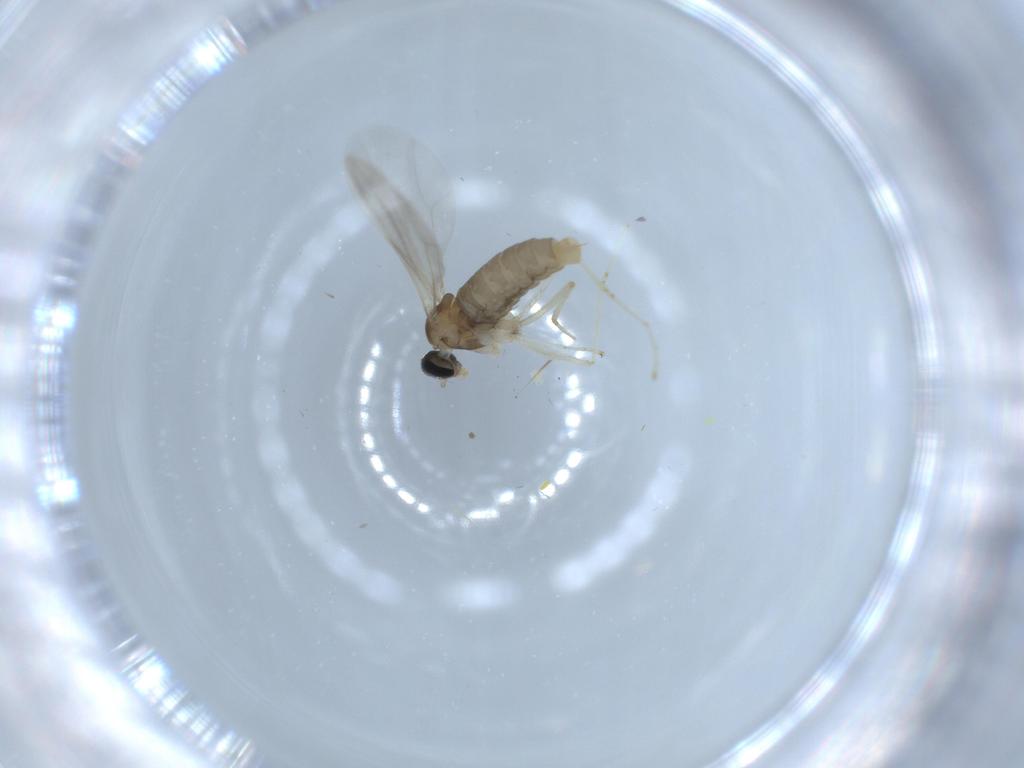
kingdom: Animalia
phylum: Arthropoda
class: Insecta
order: Diptera
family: Cecidomyiidae
